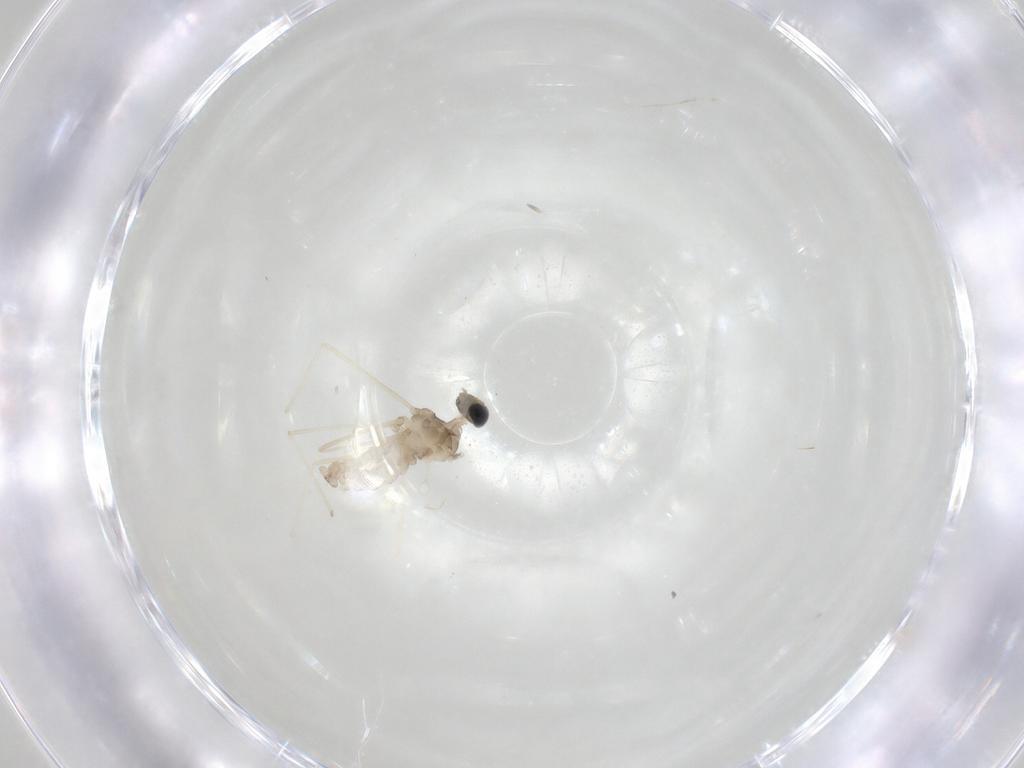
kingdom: Animalia
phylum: Arthropoda
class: Insecta
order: Diptera
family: Cecidomyiidae
